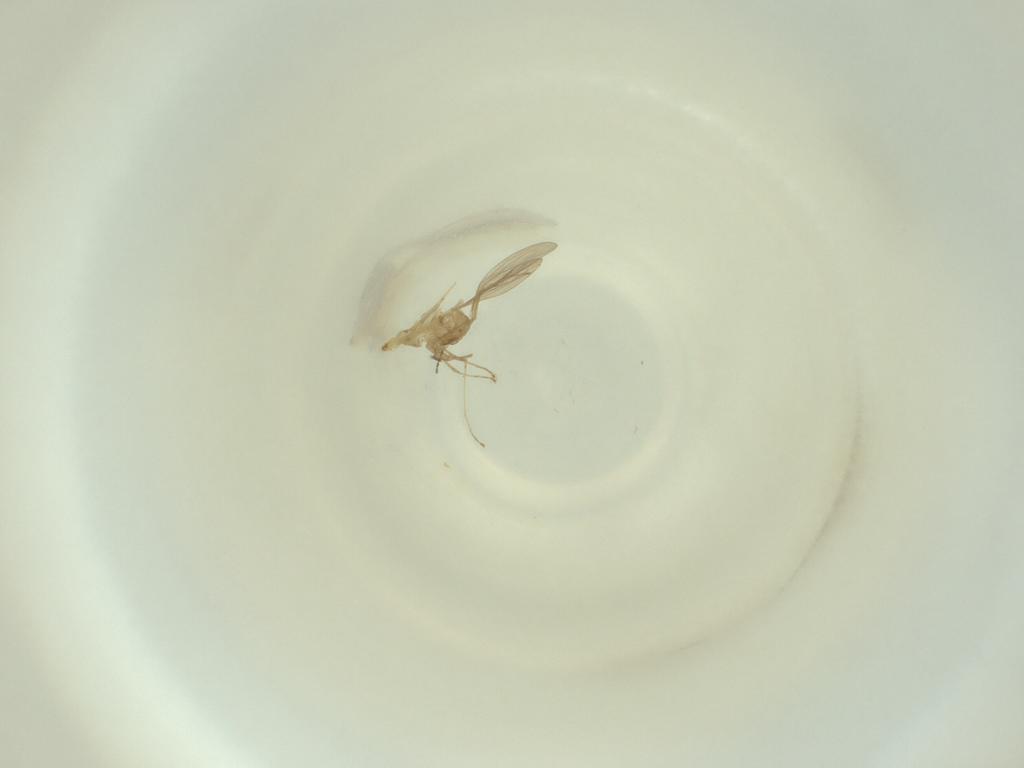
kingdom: Animalia
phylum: Arthropoda
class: Insecta
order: Diptera
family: Cecidomyiidae
